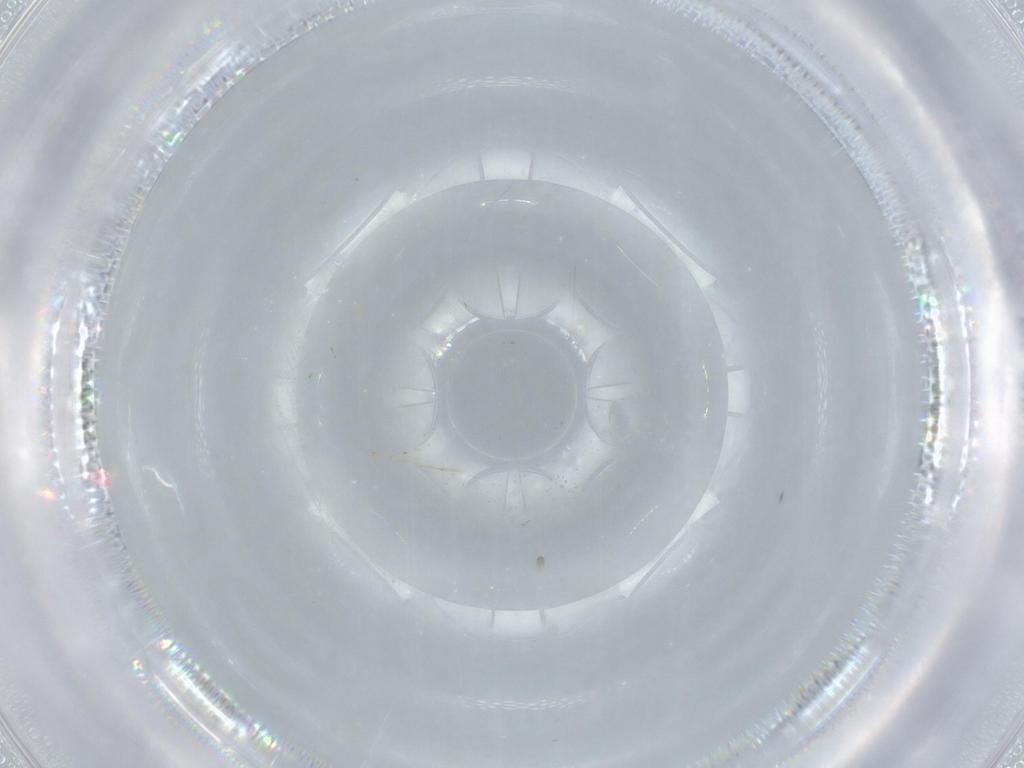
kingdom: Animalia
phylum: Arthropoda
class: Insecta
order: Hymenoptera
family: Trichogrammatidae
